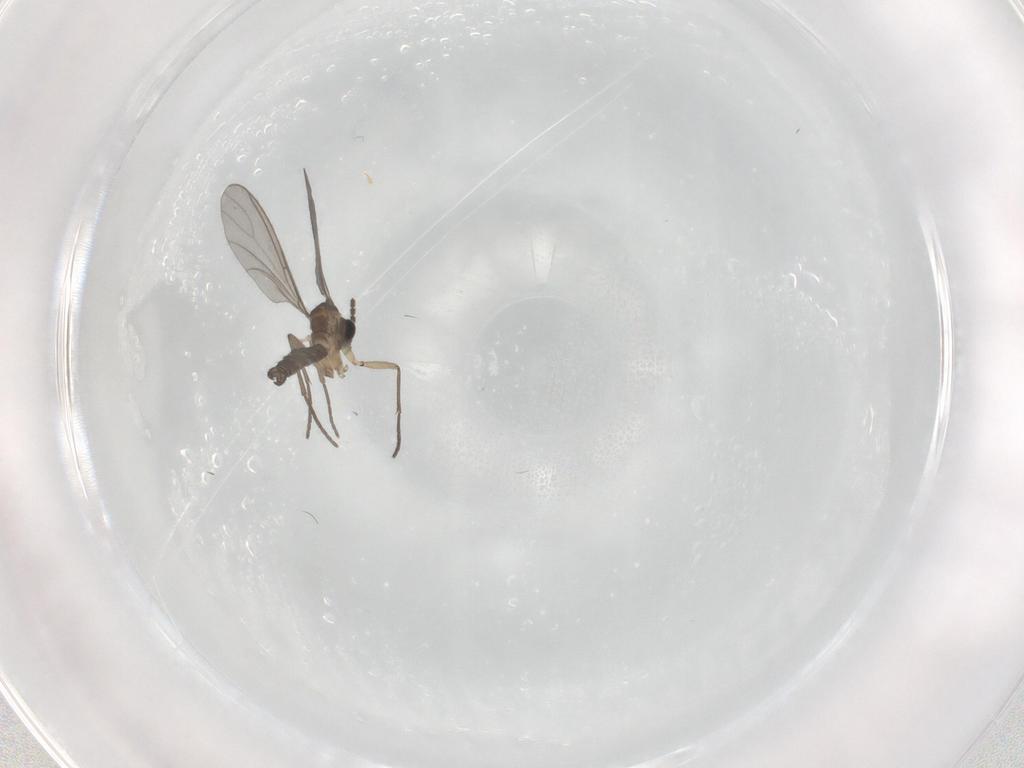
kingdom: Animalia
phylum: Arthropoda
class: Insecta
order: Diptera
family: Sciaridae
